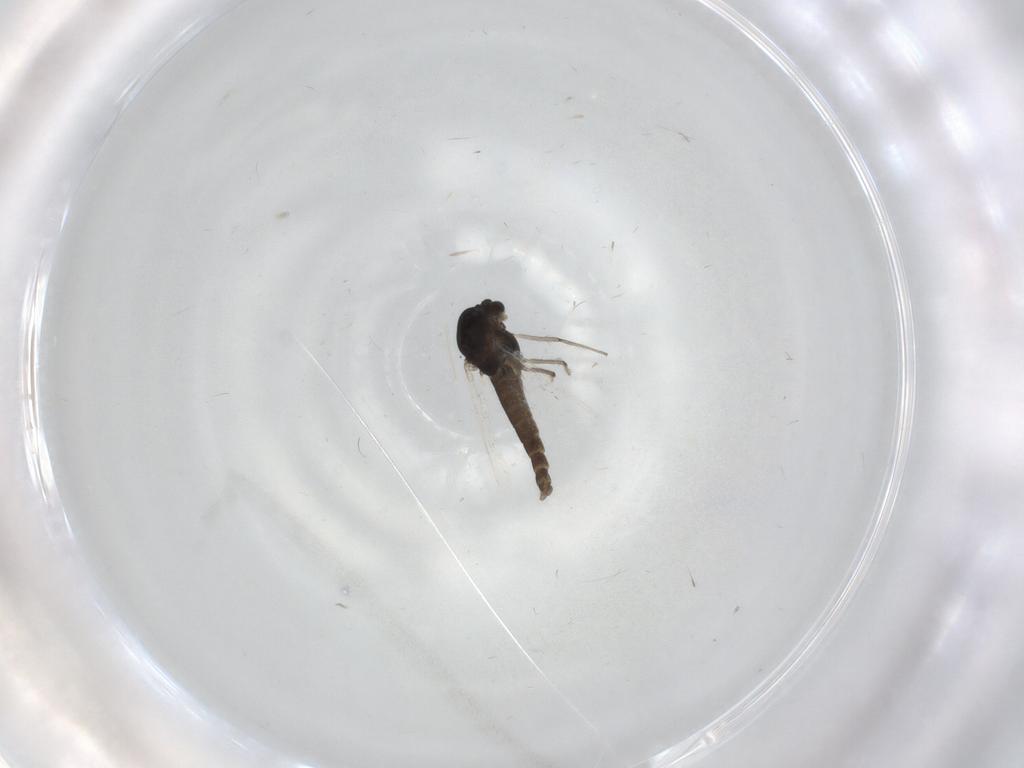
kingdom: Animalia
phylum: Arthropoda
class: Insecta
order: Diptera
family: Chironomidae
